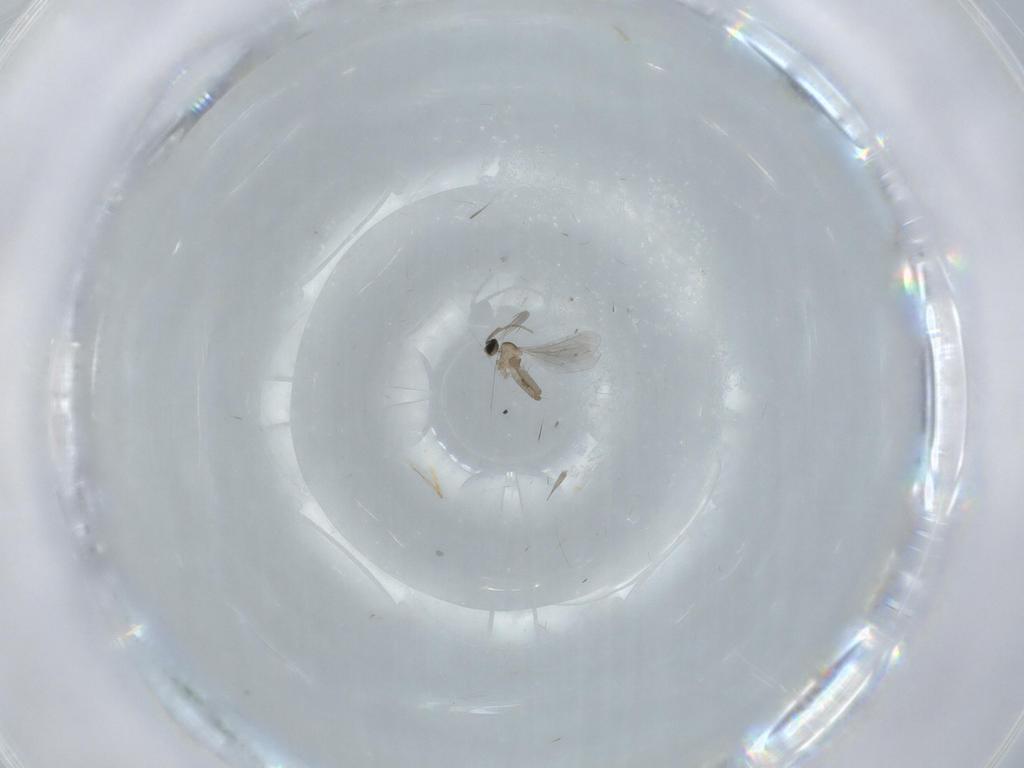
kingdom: Animalia
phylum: Arthropoda
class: Insecta
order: Diptera
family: Cecidomyiidae
